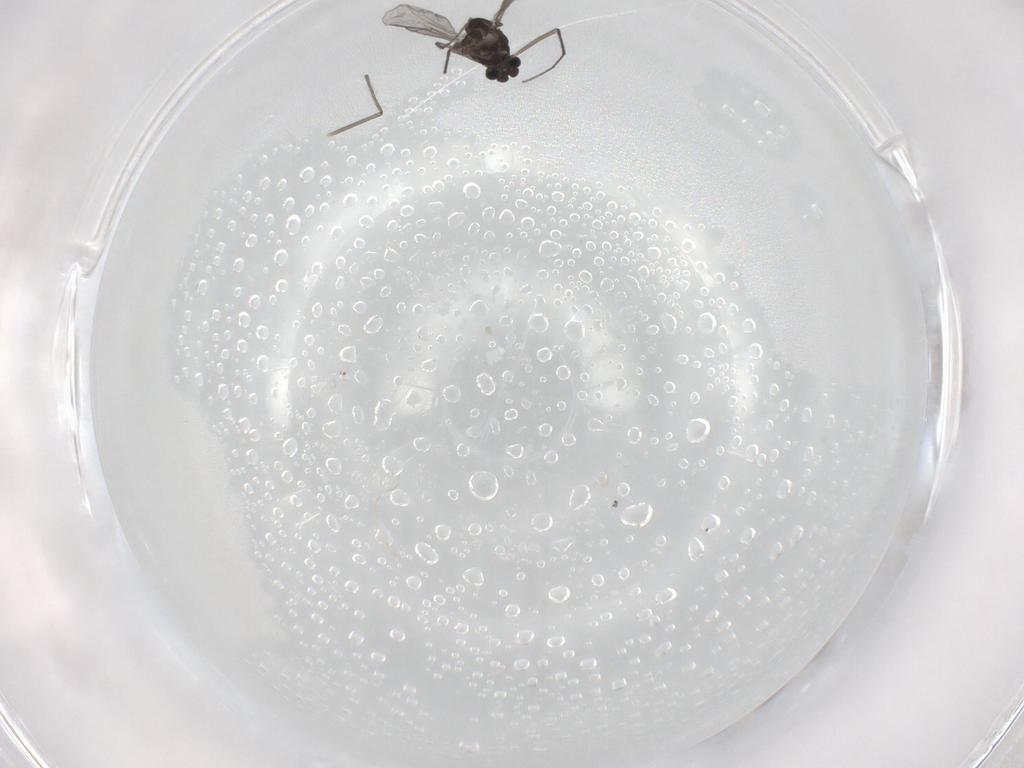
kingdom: Animalia
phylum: Arthropoda
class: Insecta
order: Diptera
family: Chironomidae
